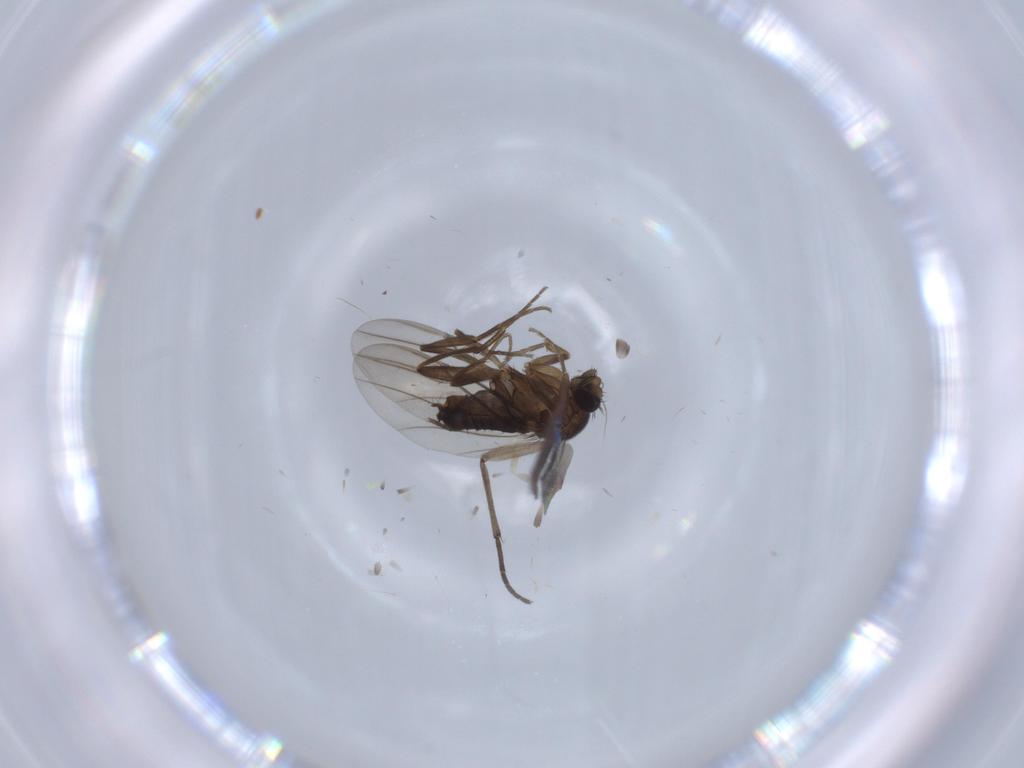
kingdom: Animalia
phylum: Arthropoda
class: Insecta
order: Diptera
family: Sciaridae
